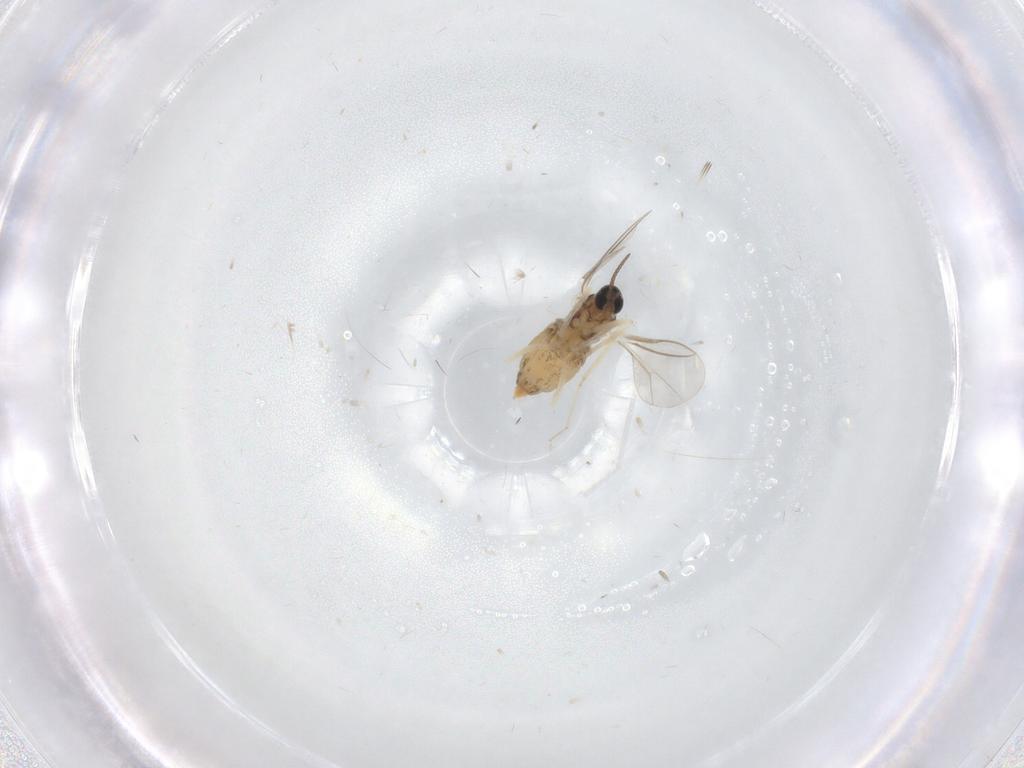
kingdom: Animalia
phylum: Arthropoda
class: Insecta
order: Diptera
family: Cecidomyiidae
